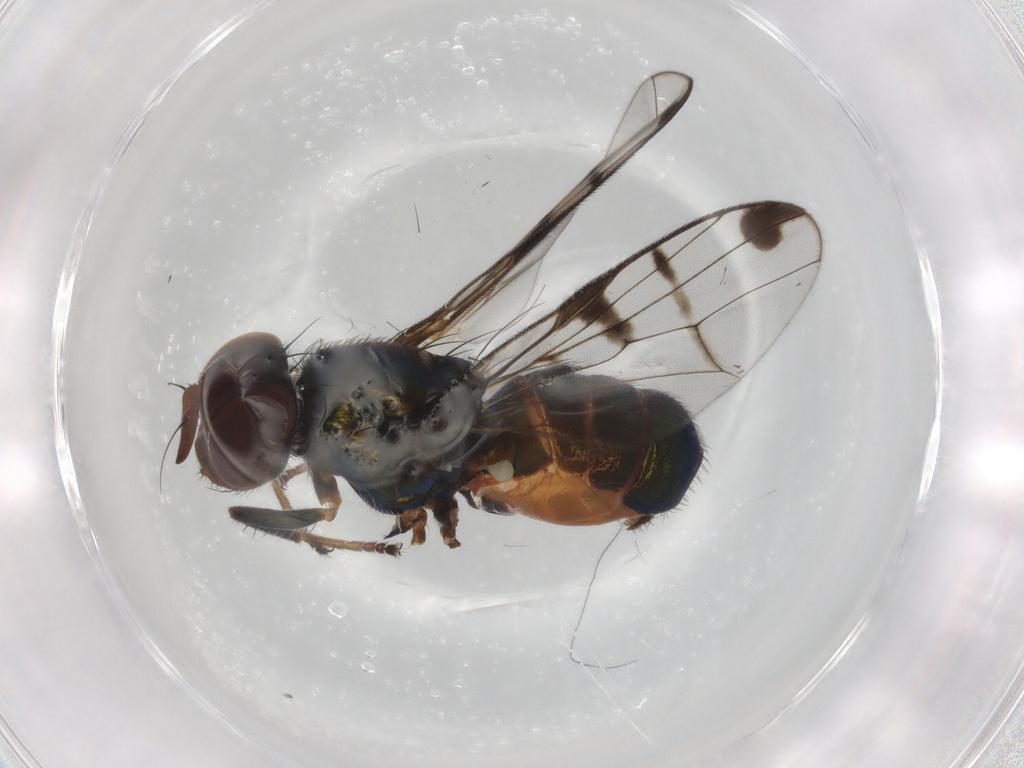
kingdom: Animalia
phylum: Arthropoda
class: Insecta
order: Diptera
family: Platystomatidae
